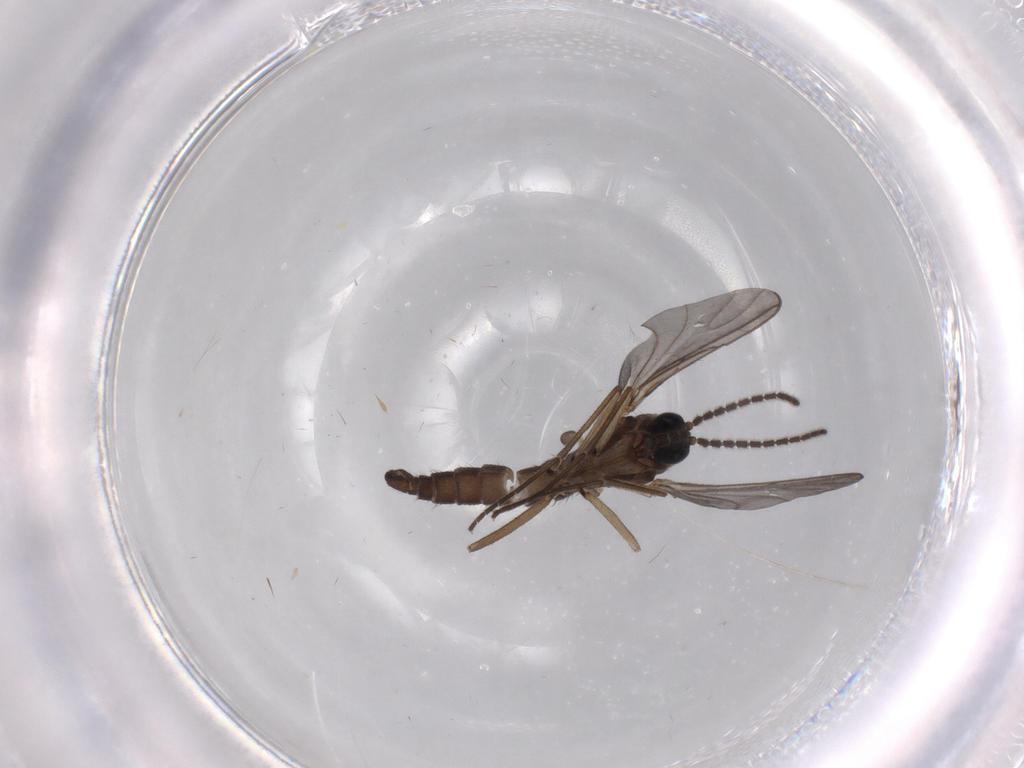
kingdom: Animalia
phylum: Arthropoda
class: Insecta
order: Diptera
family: Sciaridae
